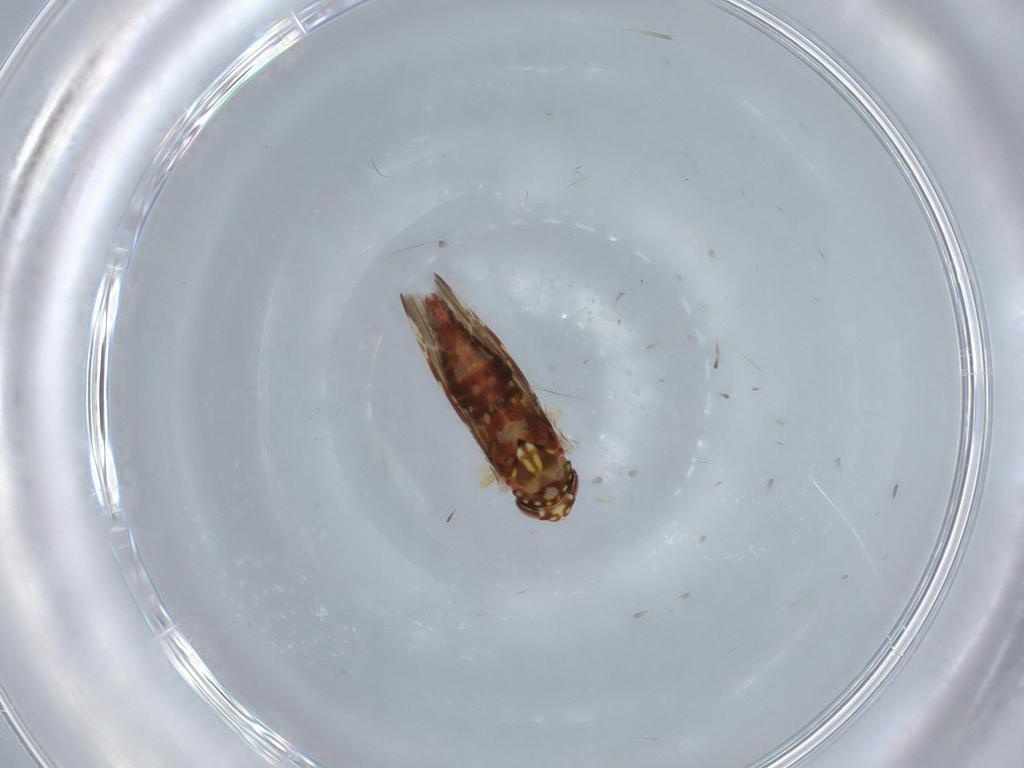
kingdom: Animalia
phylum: Arthropoda
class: Insecta
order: Hemiptera
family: Cicadellidae
